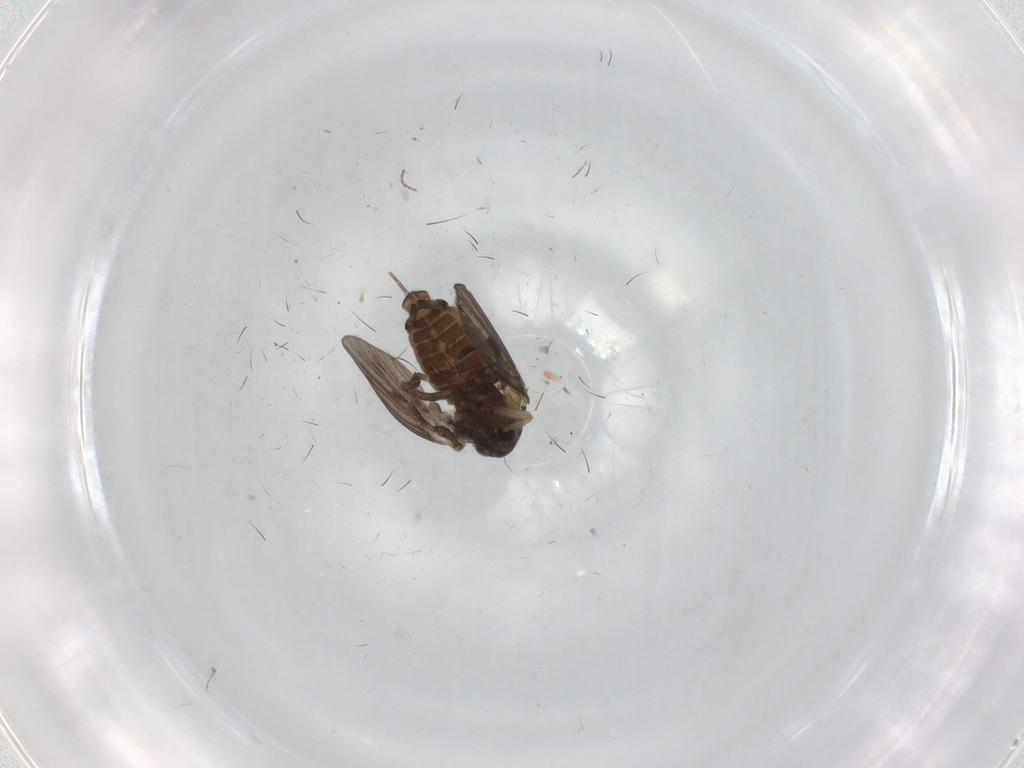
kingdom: Animalia
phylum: Arthropoda
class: Insecta
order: Diptera
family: Phoridae
